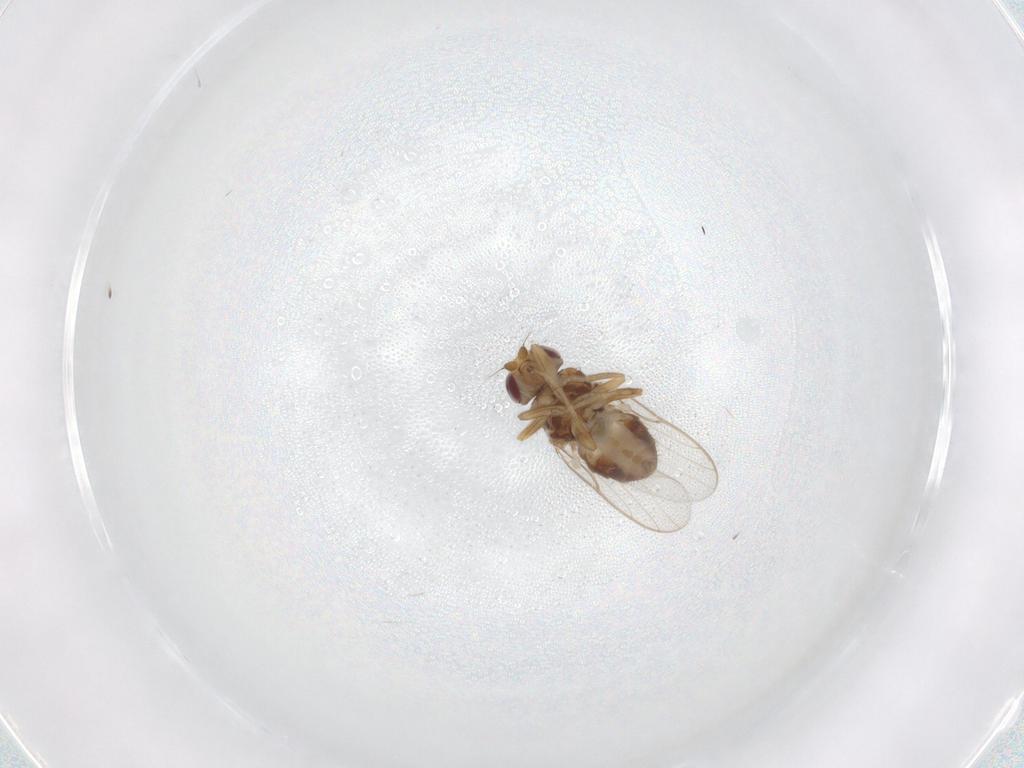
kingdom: Animalia
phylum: Arthropoda
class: Insecta
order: Diptera
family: Chloropidae
